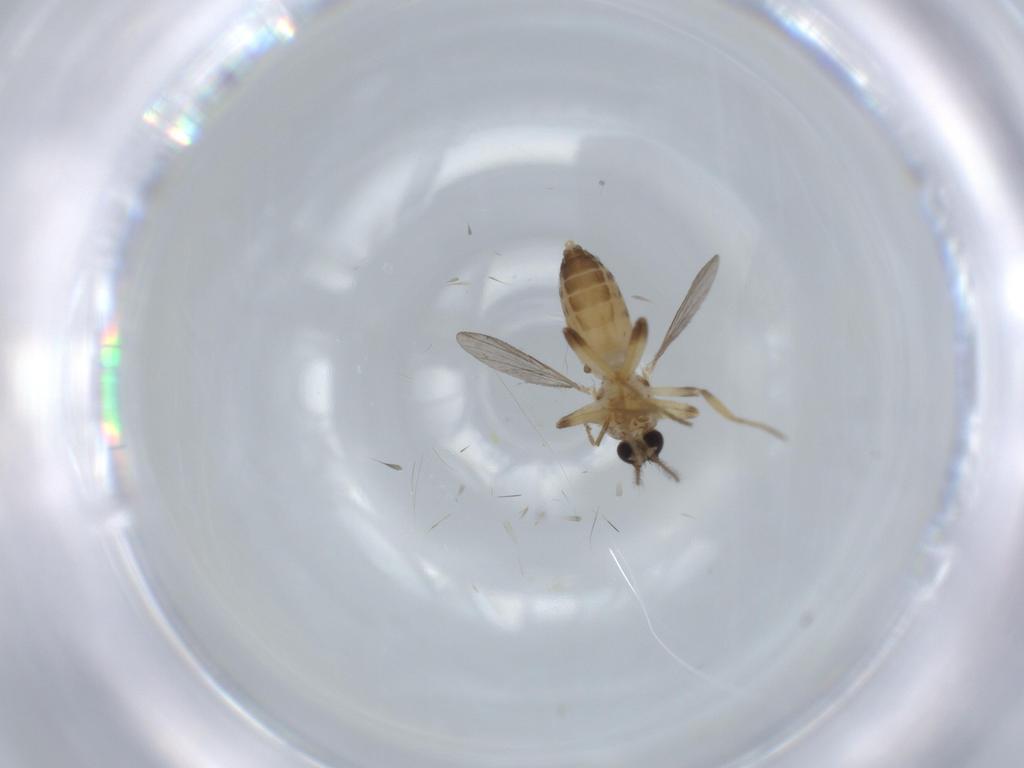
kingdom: Animalia
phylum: Arthropoda
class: Insecta
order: Diptera
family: Ceratopogonidae
